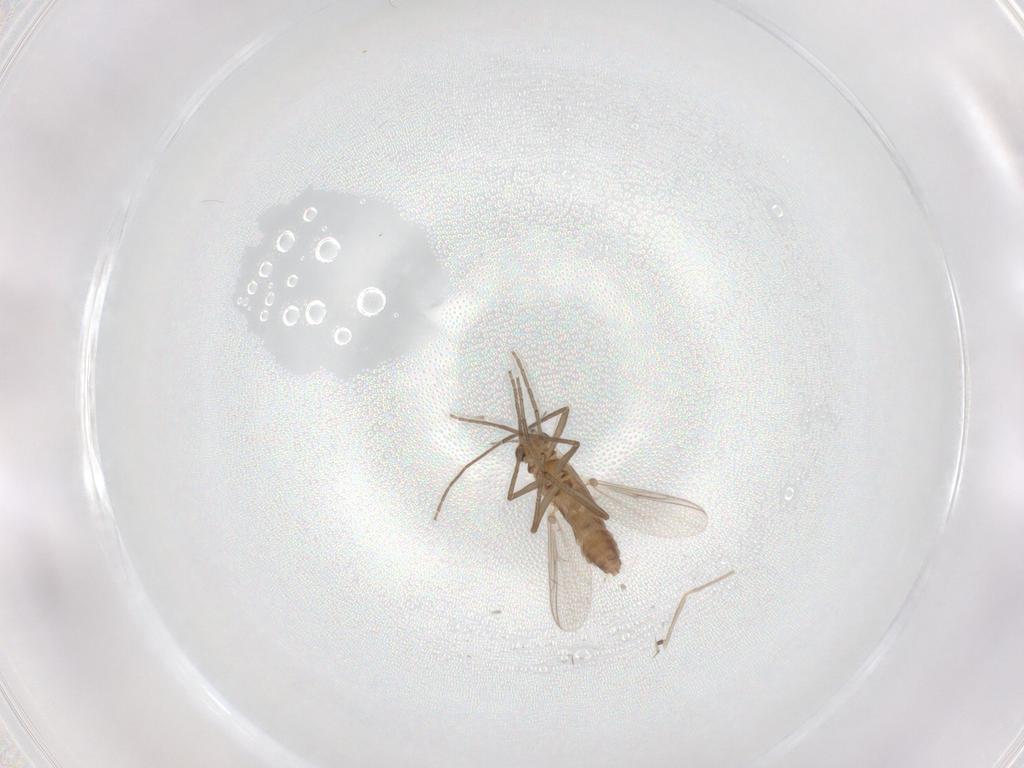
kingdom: Animalia
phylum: Arthropoda
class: Insecta
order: Diptera
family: Chironomidae
